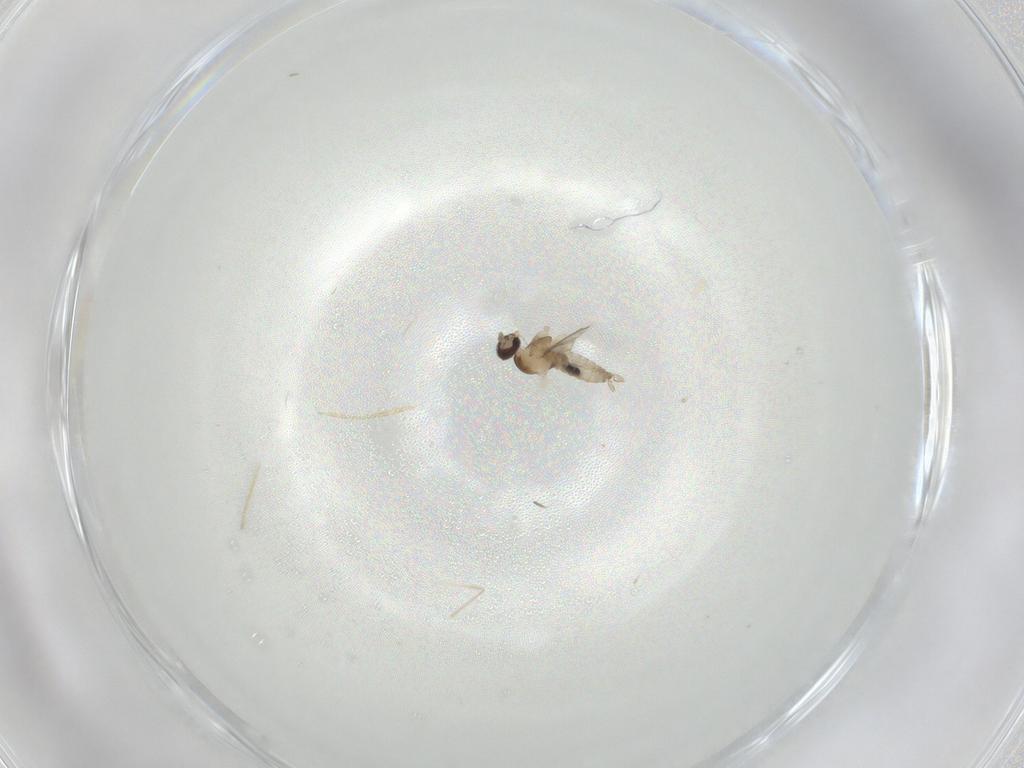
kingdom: Animalia
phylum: Arthropoda
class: Insecta
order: Diptera
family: Cecidomyiidae
